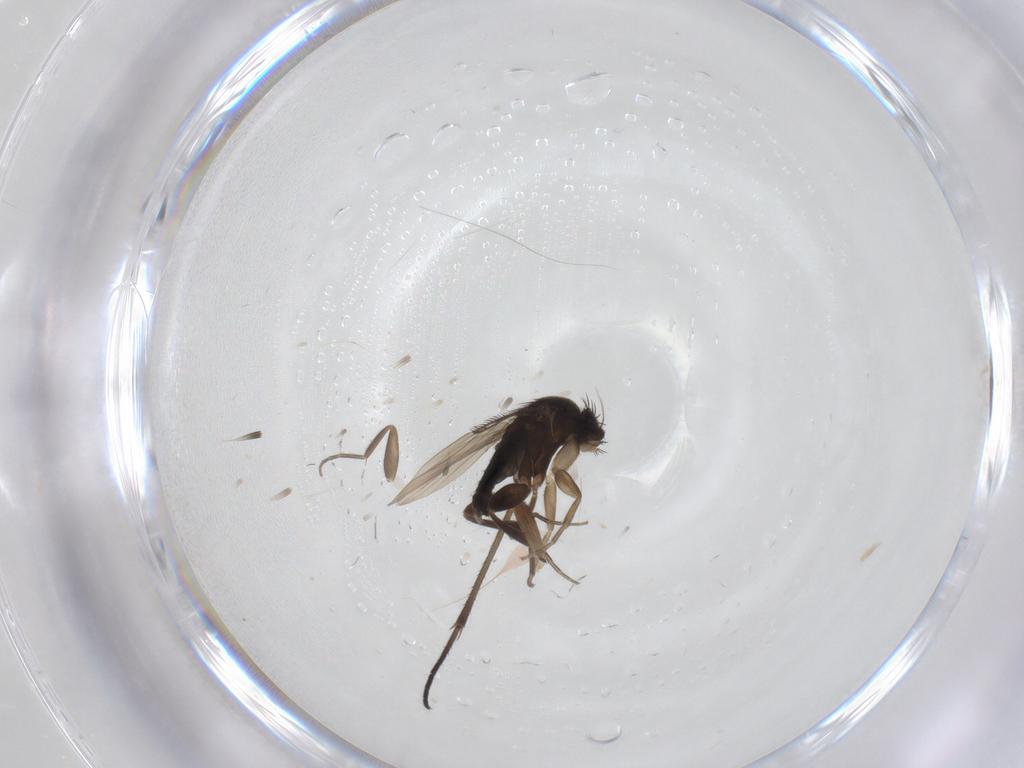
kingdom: Animalia
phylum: Arthropoda
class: Insecta
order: Diptera
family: Phoridae
